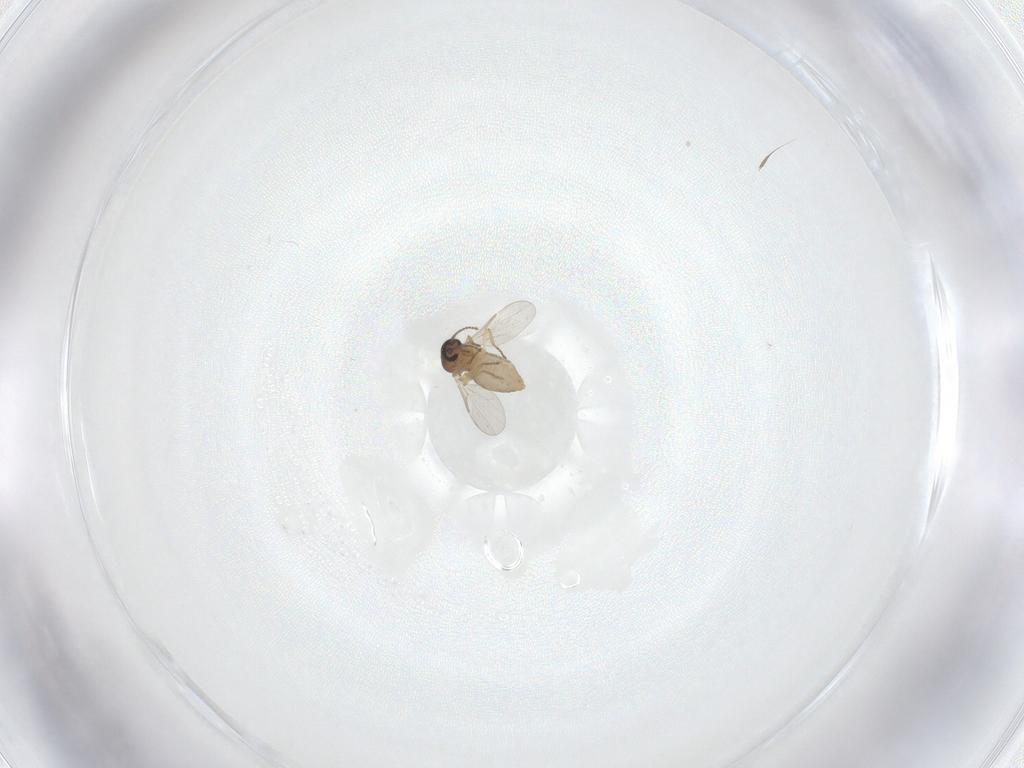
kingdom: Animalia
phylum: Arthropoda
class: Insecta
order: Diptera
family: Ceratopogonidae
